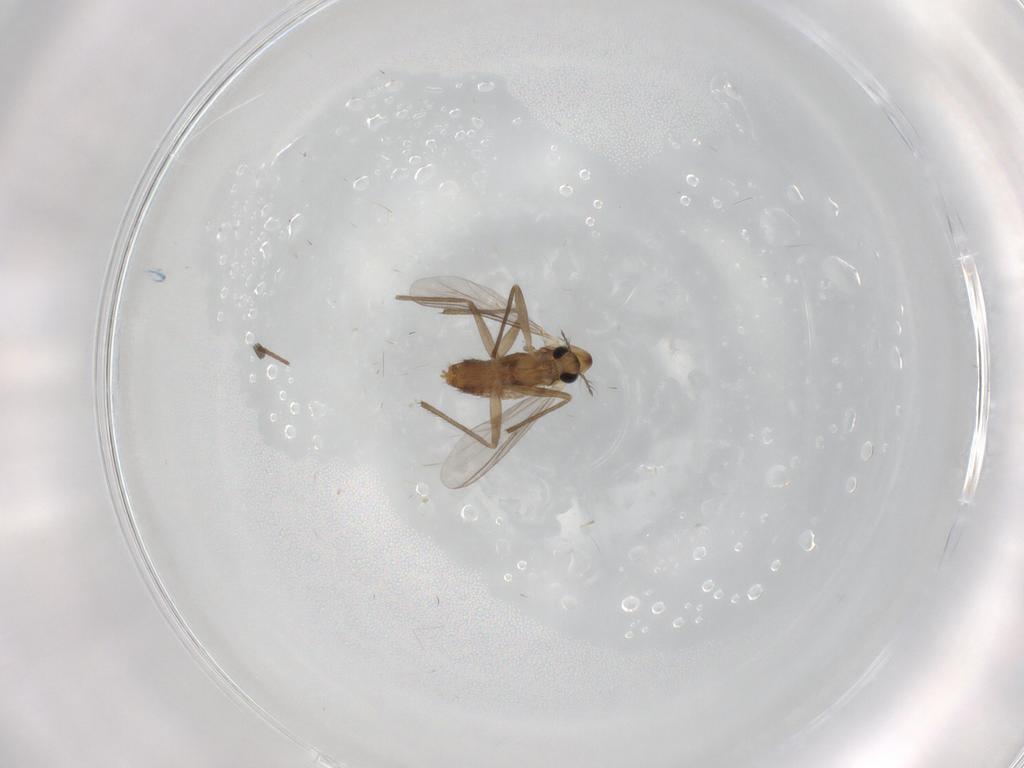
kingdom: Animalia
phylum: Arthropoda
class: Insecta
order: Diptera
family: Chironomidae
